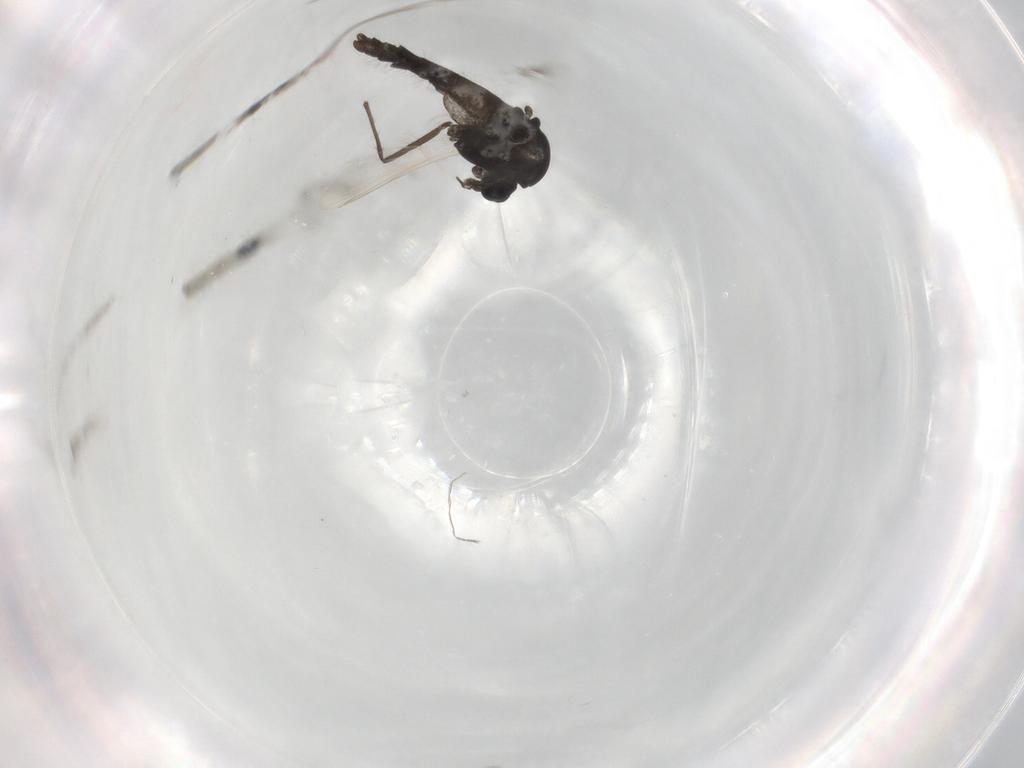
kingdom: Animalia
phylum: Arthropoda
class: Insecta
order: Diptera
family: Chironomidae
